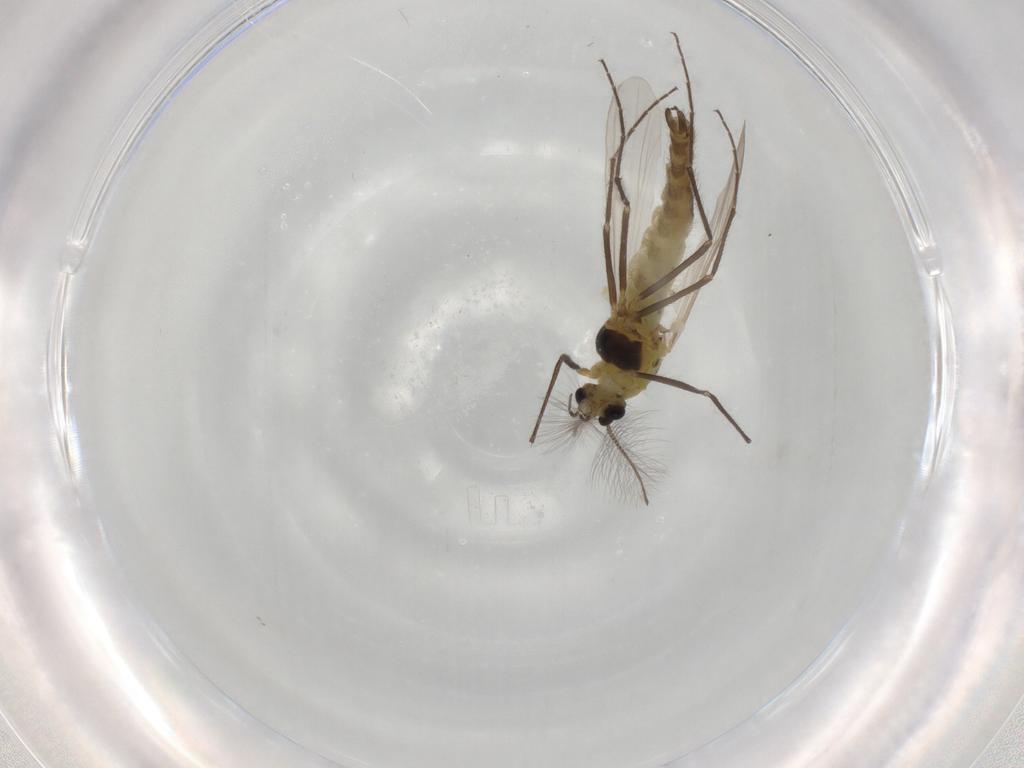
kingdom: Animalia
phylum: Arthropoda
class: Insecta
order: Diptera
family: Chironomidae
